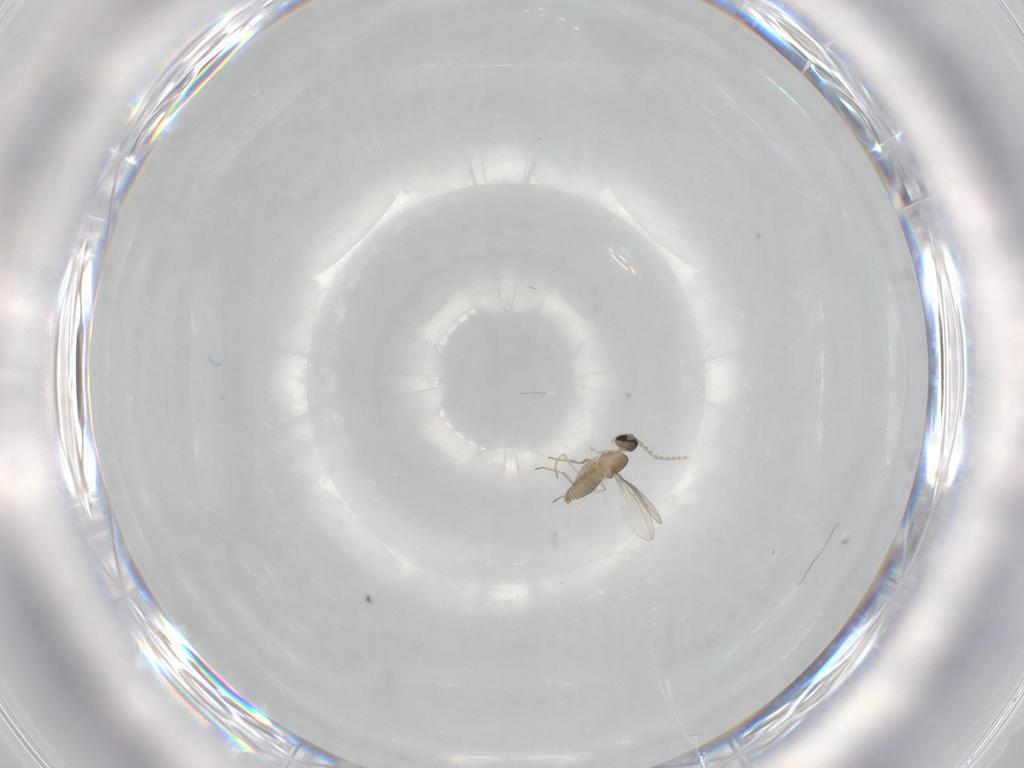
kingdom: Animalia
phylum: Arthropoda
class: Insecta
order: Diptera
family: Cecidomyiidae
